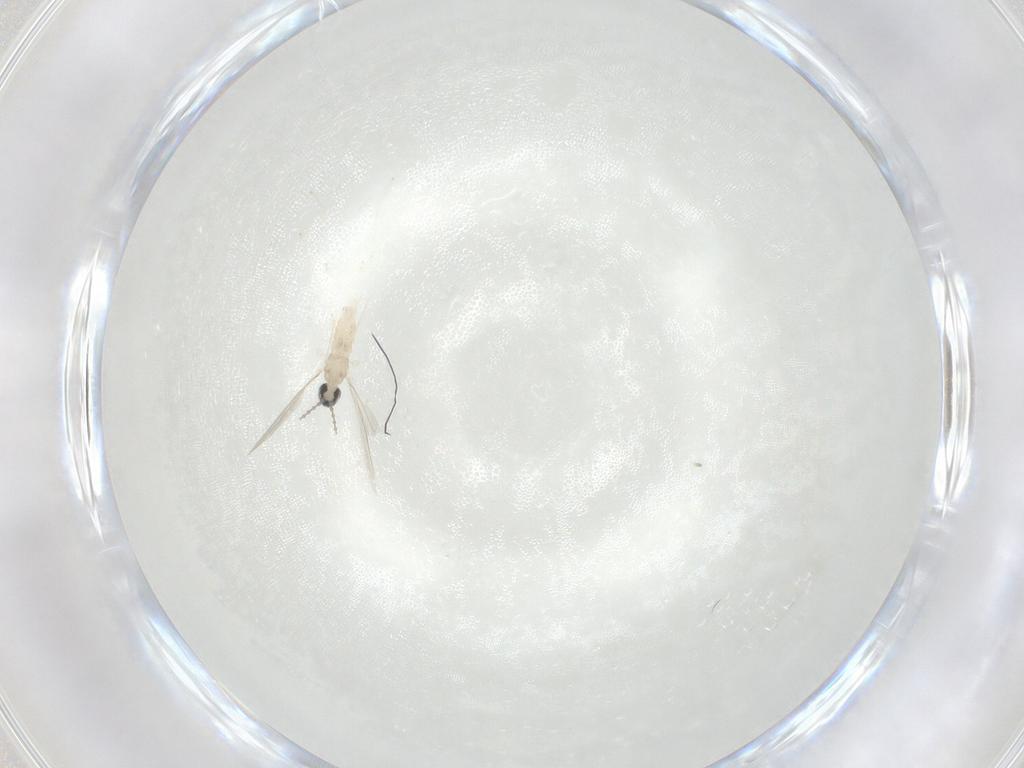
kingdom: Animalia
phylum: Arthropoda
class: Insecta
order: Diptera
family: Cecidomyiidae
